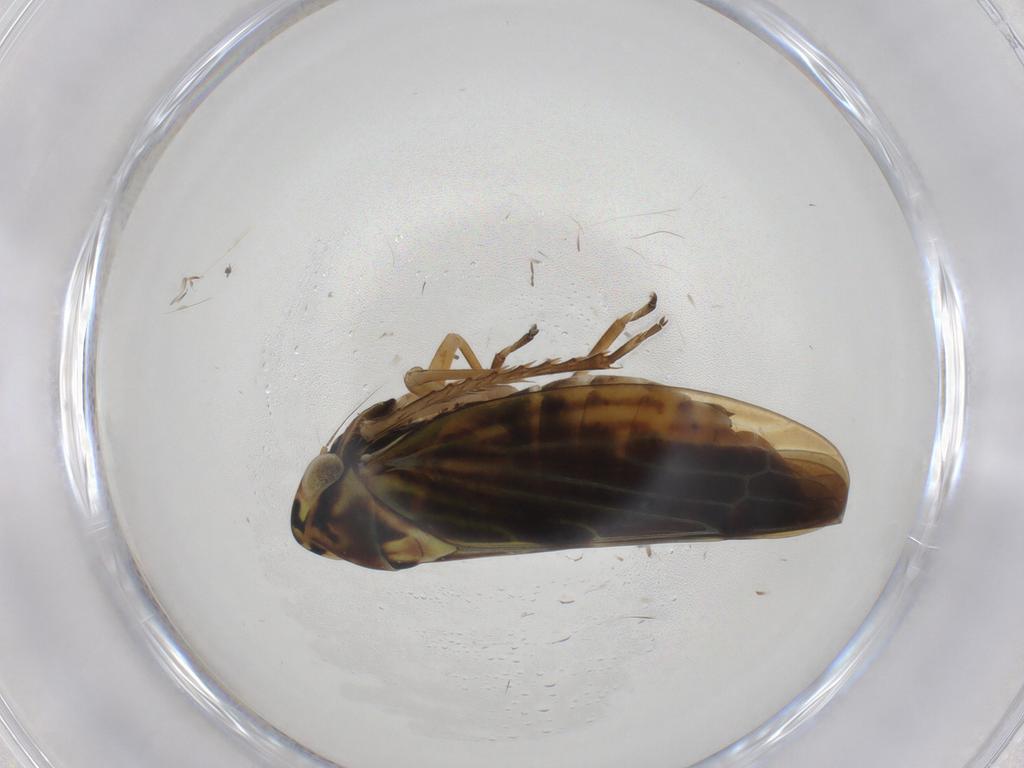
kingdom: Animalia
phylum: Arthropoda
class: Insecta
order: Hemiptera
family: Cicadellidae
